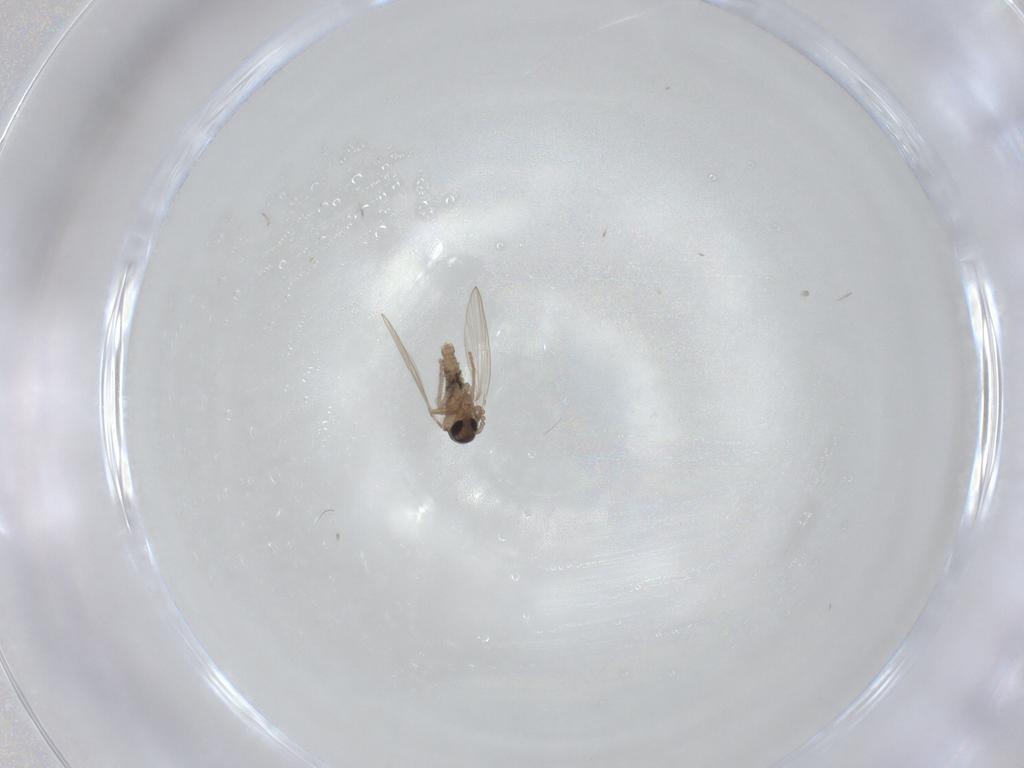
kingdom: Animalia
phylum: Arthropoda
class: Insecta
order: Diptera
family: Psychodidae
